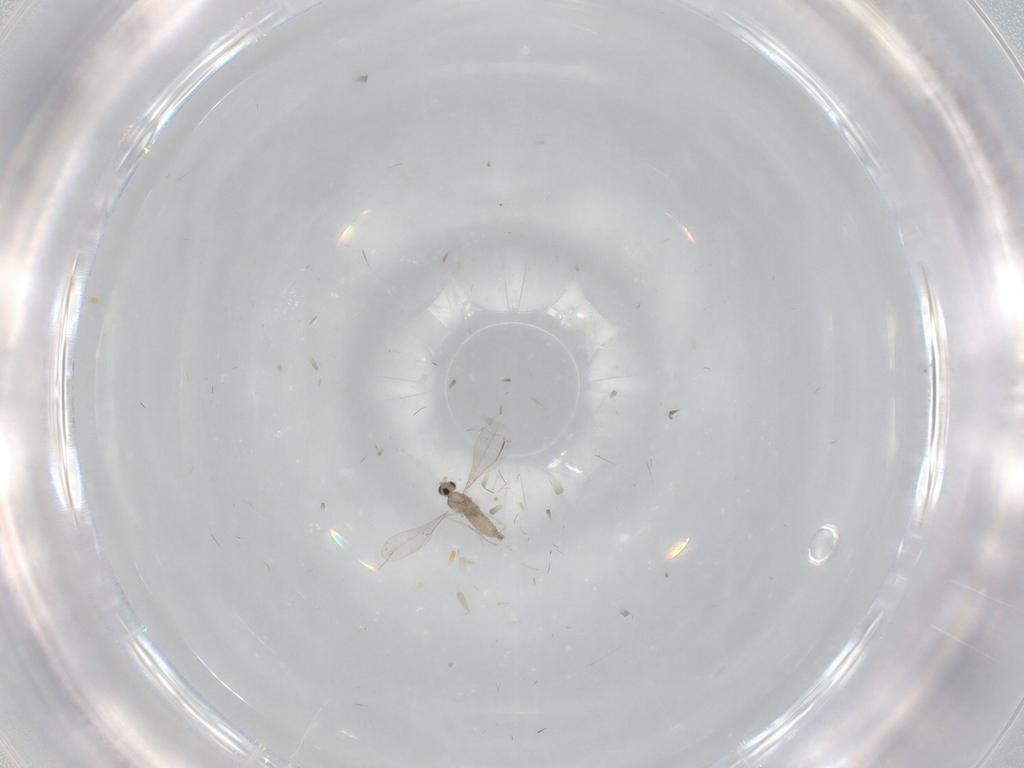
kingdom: Animalia
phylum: Arthropoda
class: Insecta
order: Diptera
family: Cecidomyiidae
